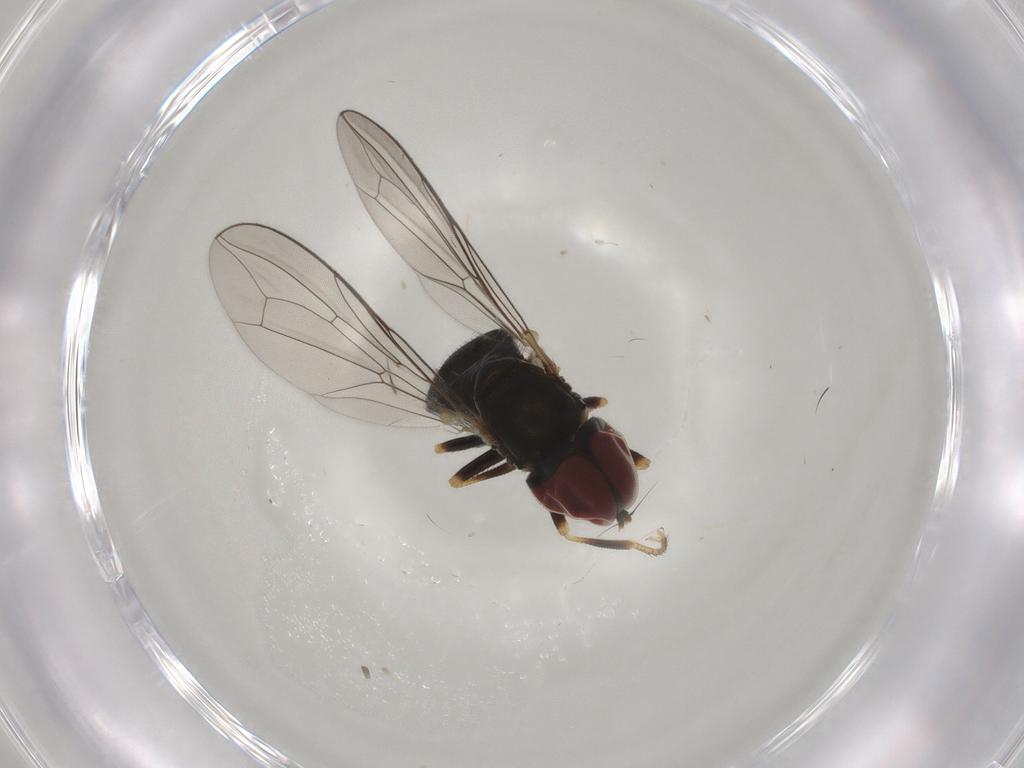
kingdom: Animalia
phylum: Arthropoda
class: Insecta
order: Diptera
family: Pipunculidae
